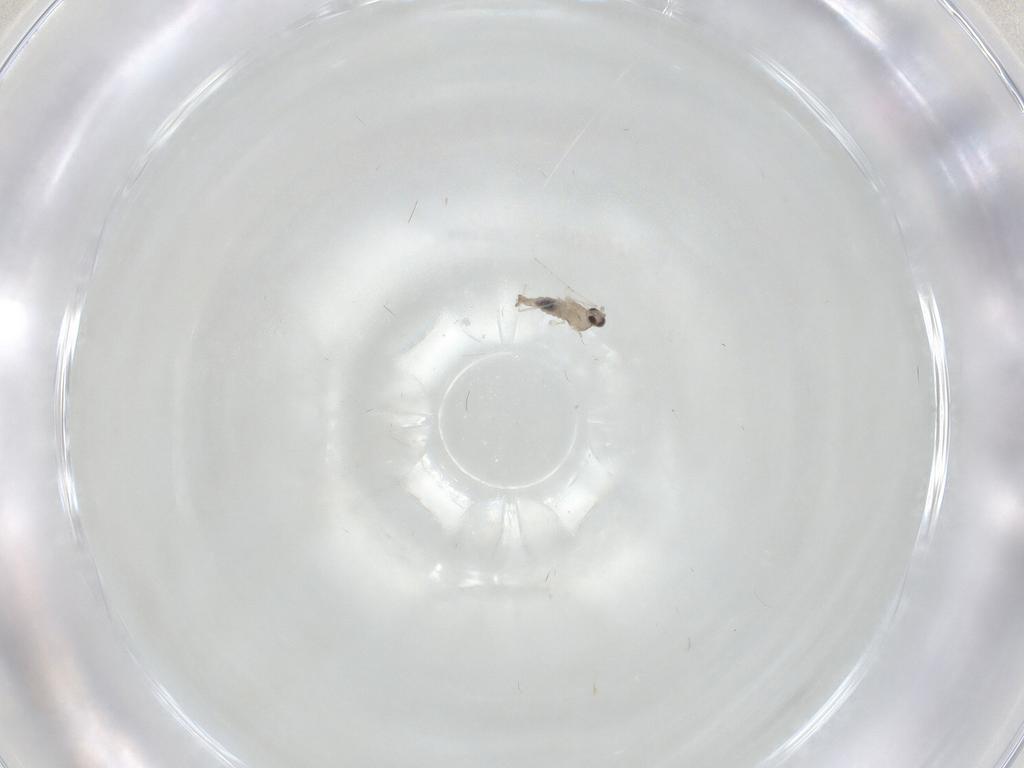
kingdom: Animalia
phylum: Arthropoda
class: Insecta
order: Diptera
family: Cecidomyiidae
